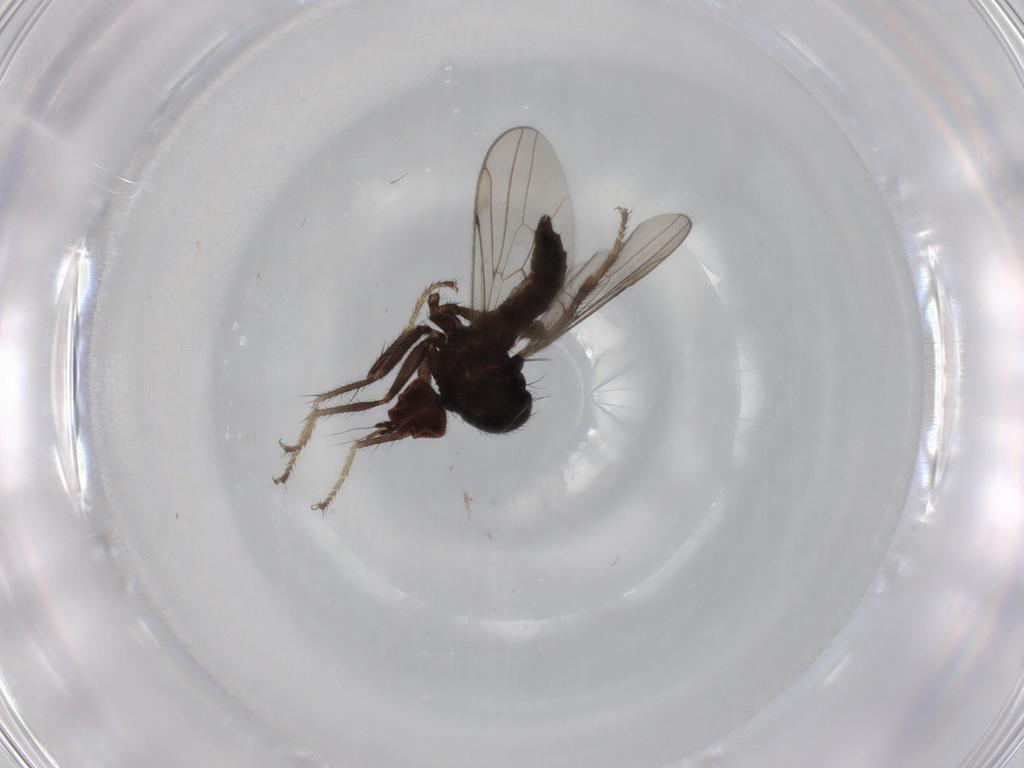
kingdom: Animalia
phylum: Arthropoda
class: Insecta
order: Diptera
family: Hybotidae
